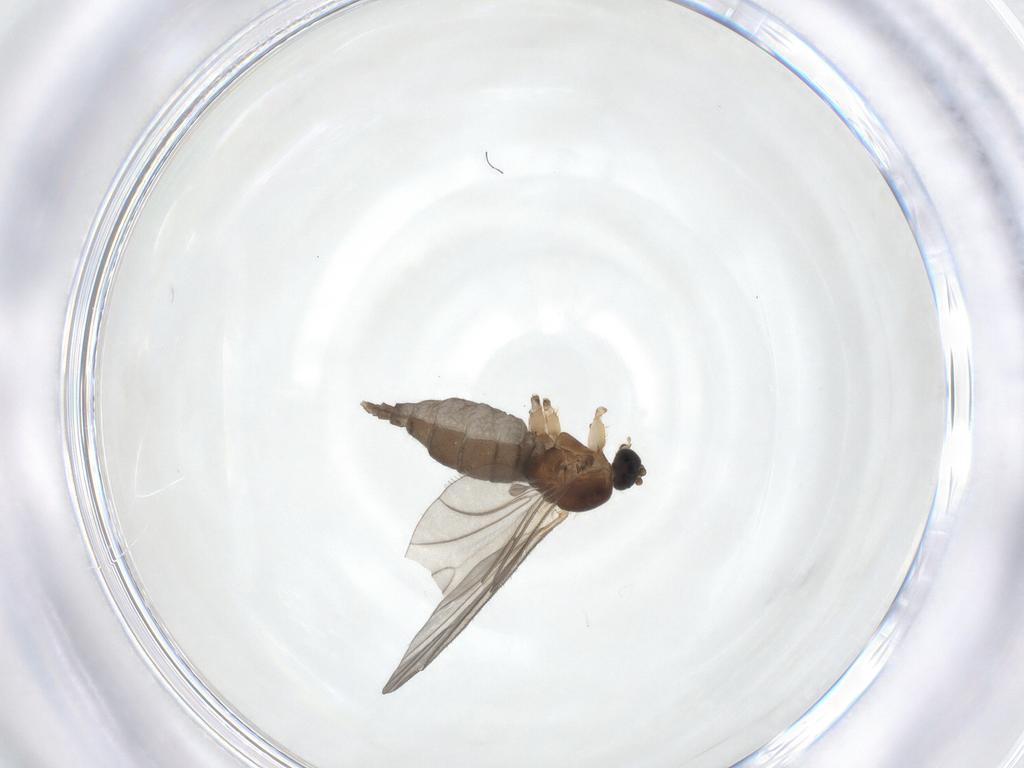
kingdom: Animalia
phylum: Arthropoda
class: Insecta
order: Diptera
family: Sciaridae
